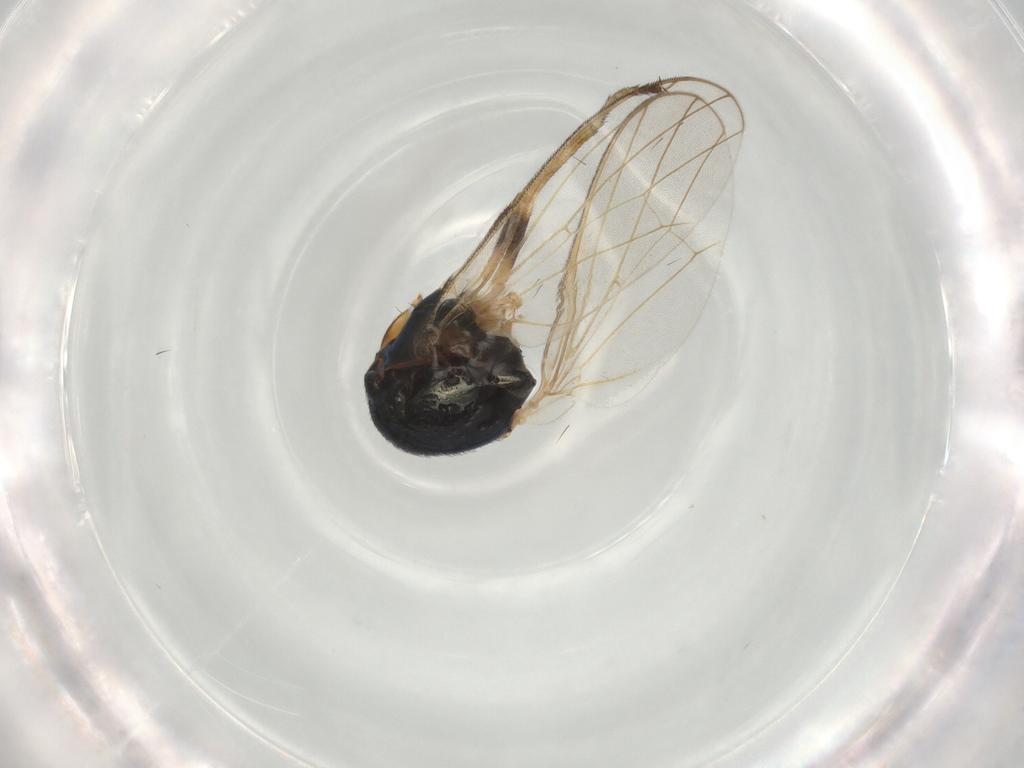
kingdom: Animalia
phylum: Arthropoda
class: Insecta
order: Diptera
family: Piophilidae
